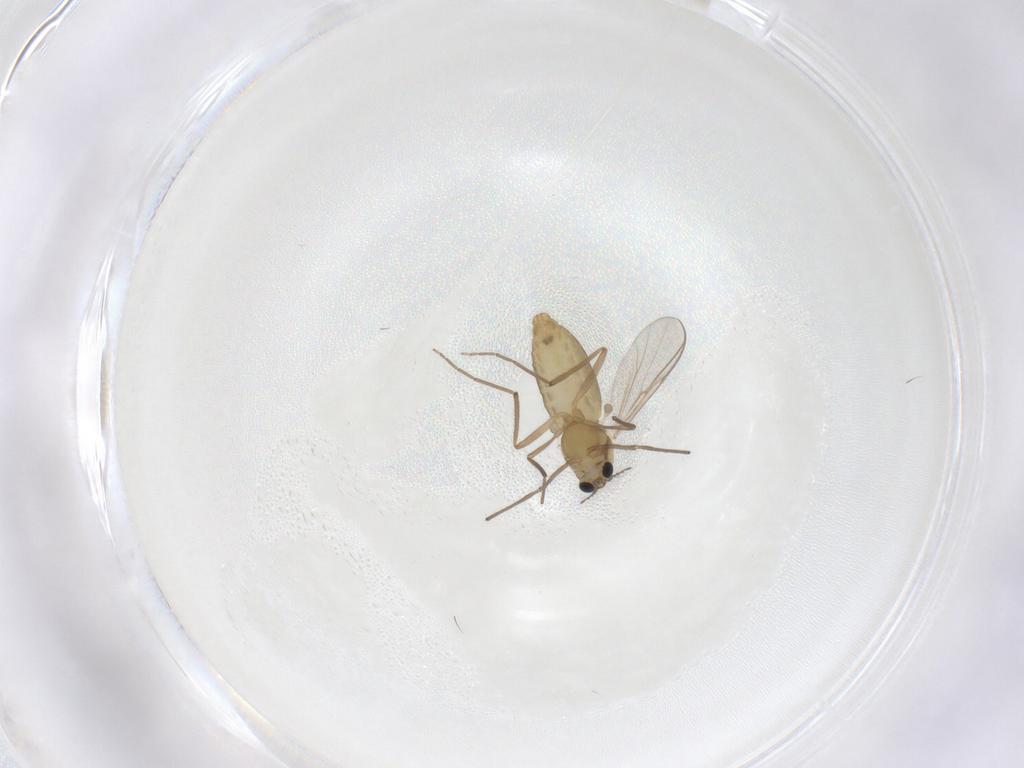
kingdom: Animalia
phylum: Arthropoda
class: Insecta
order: Diptera
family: Chironomidae
